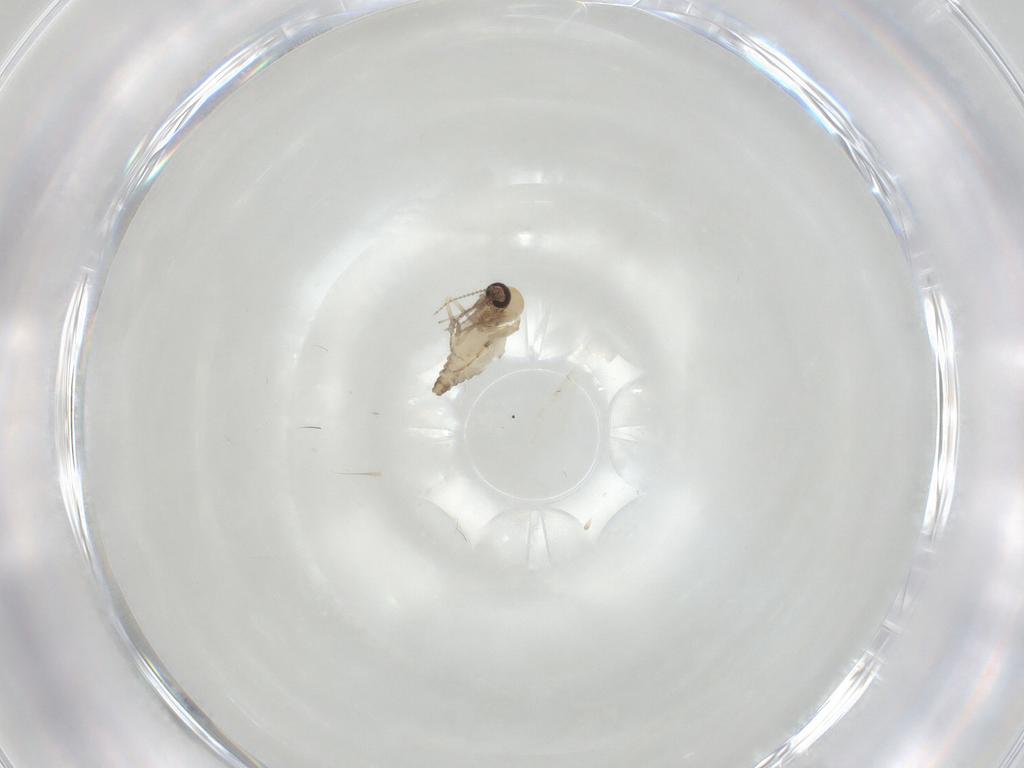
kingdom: Animalia
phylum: Arthropoda
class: Insecta
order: Diptera
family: Ceratopogonidae
